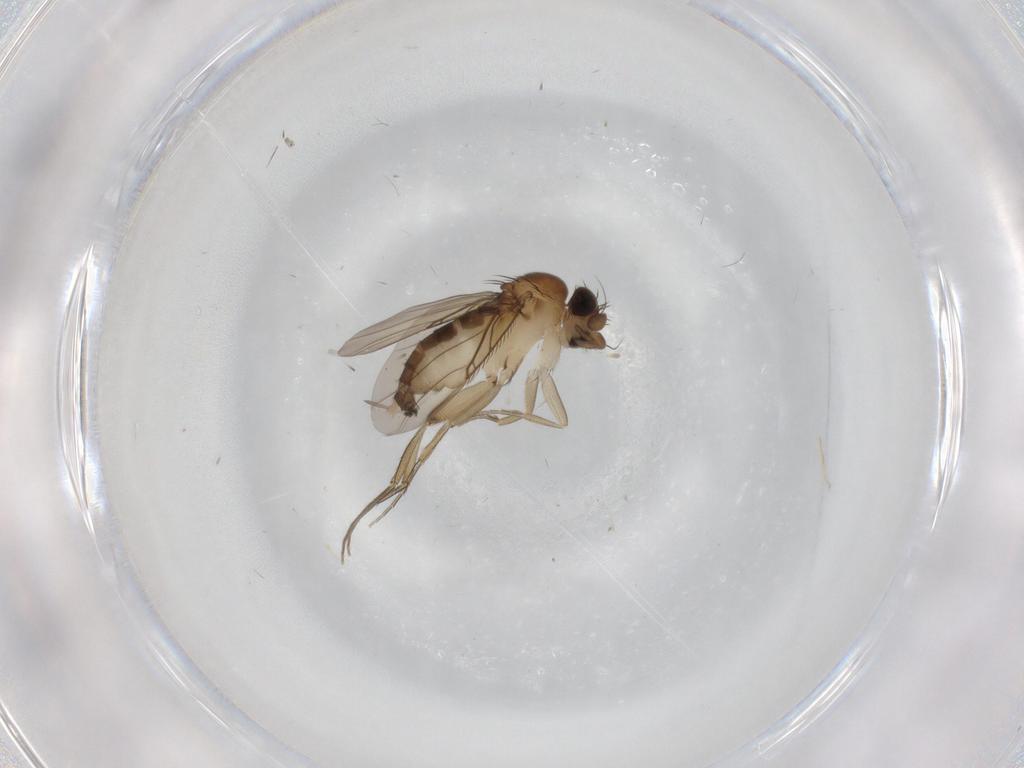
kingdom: Animalia
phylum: Arthropoda
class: Insecta
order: Diptera
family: Phoridae
